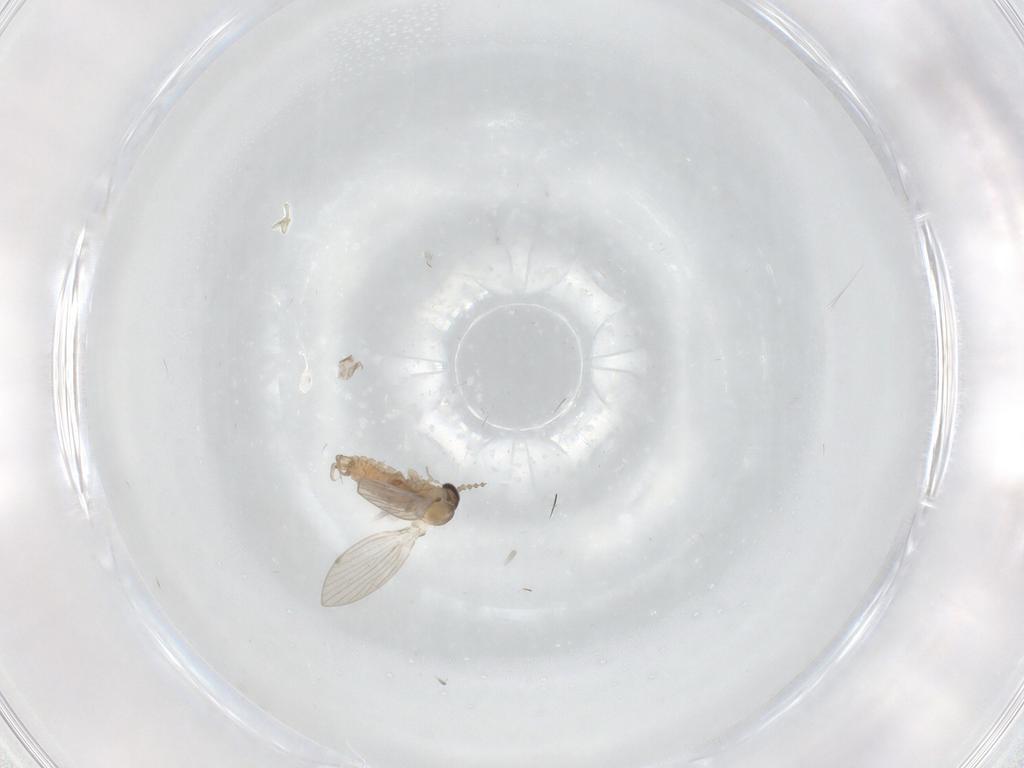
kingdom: Animalia
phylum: Arthropoda
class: Insecta
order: Diptera
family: Psychodidae
